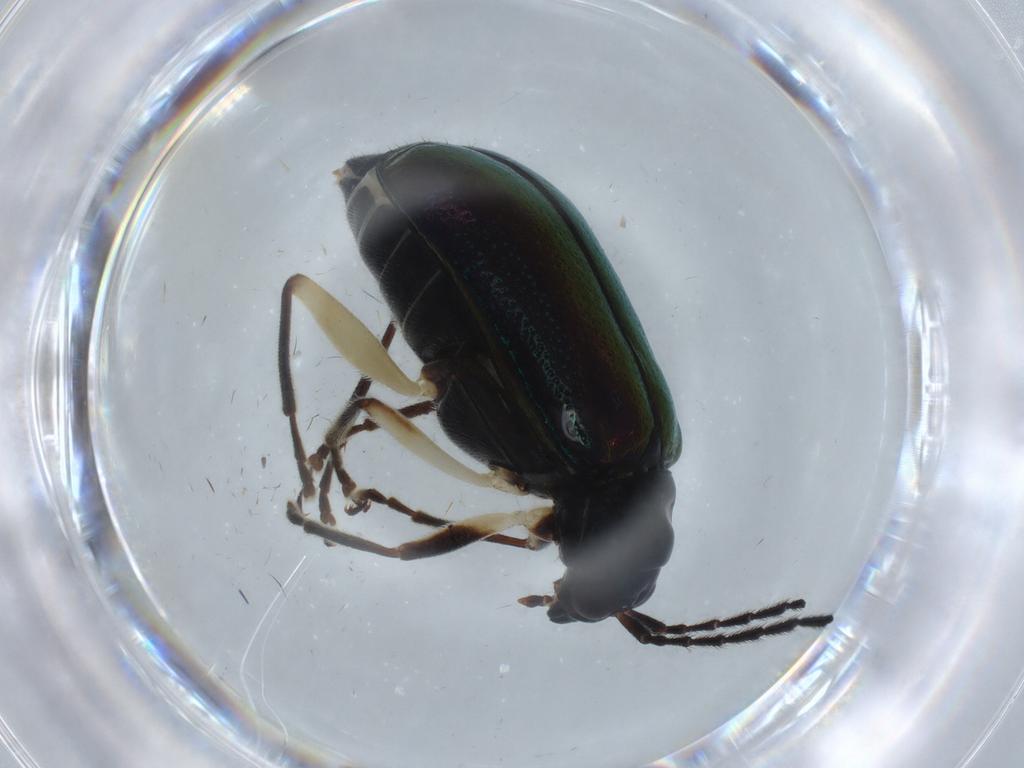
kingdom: Animalia
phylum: Arthropoda
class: Insecta
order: Coleoptera
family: Chrysomelidae
